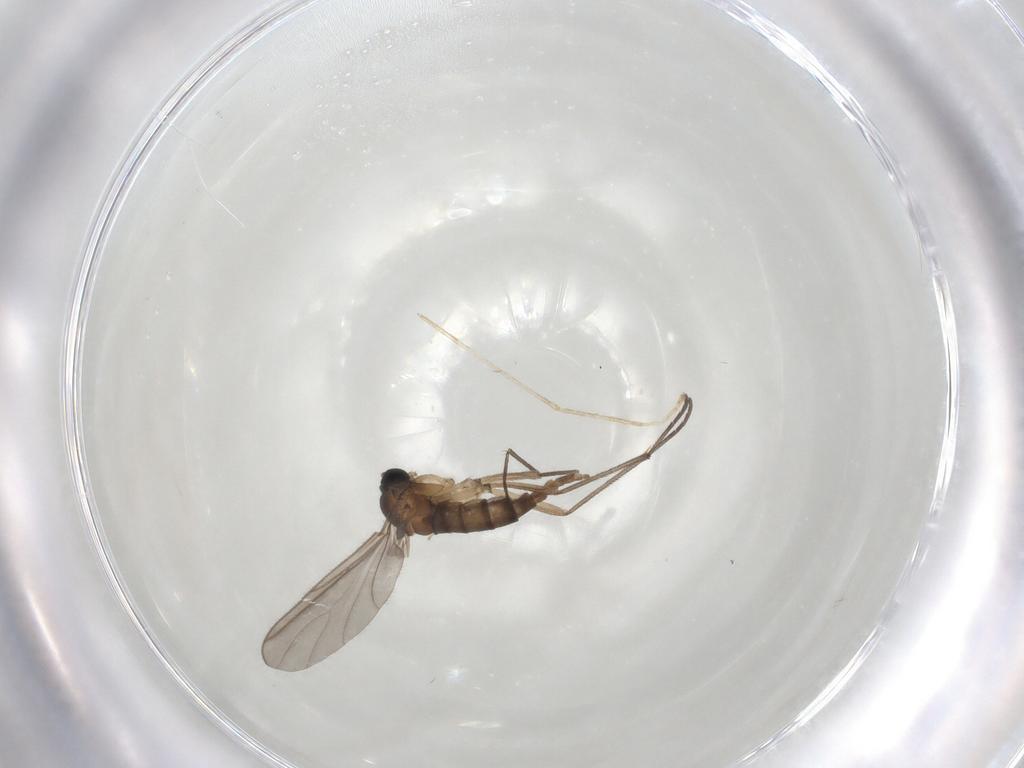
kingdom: Animalia
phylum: Arthropoda
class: Insecta
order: Diptera
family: Sciaridae
